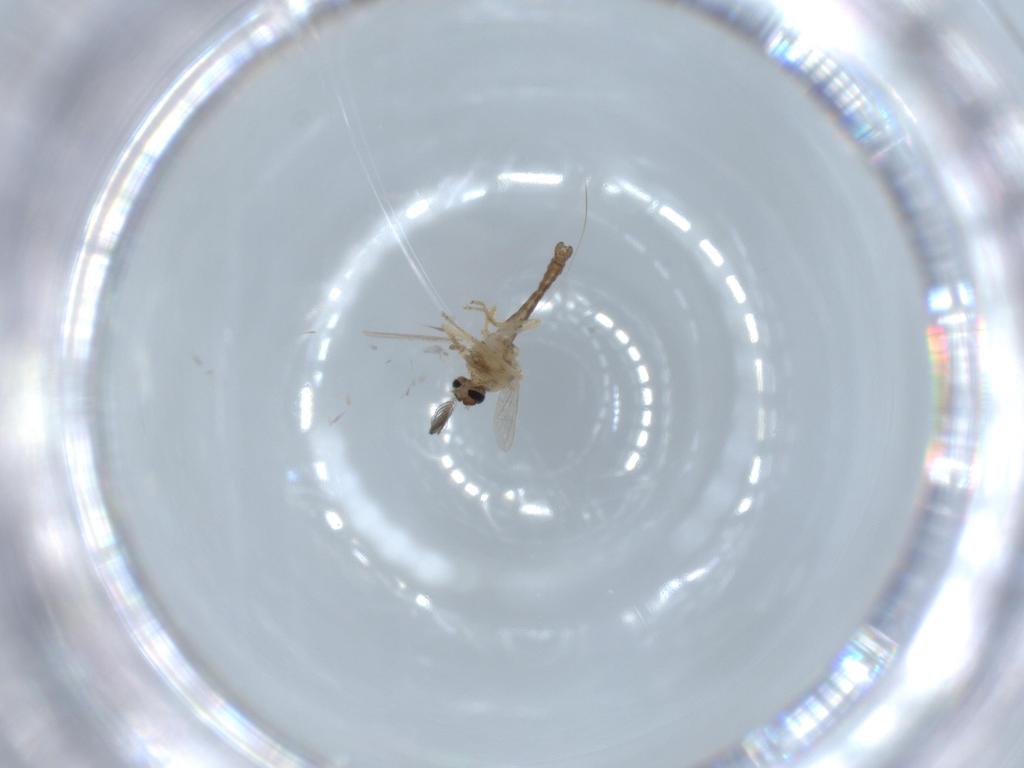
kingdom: Animalia
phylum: Arthropoda
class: Insecta
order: Diptera
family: Ceratopogonidae
